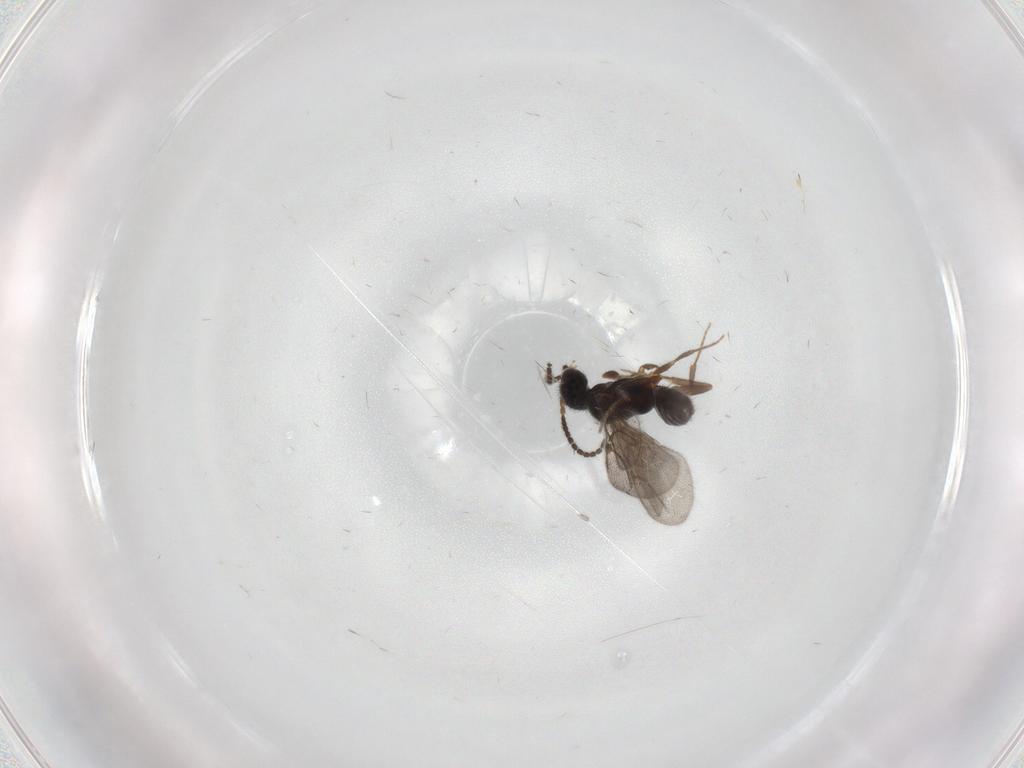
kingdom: Animalia
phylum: Arthropoda
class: Insecta
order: Hymenoptera
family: Bethylidae
